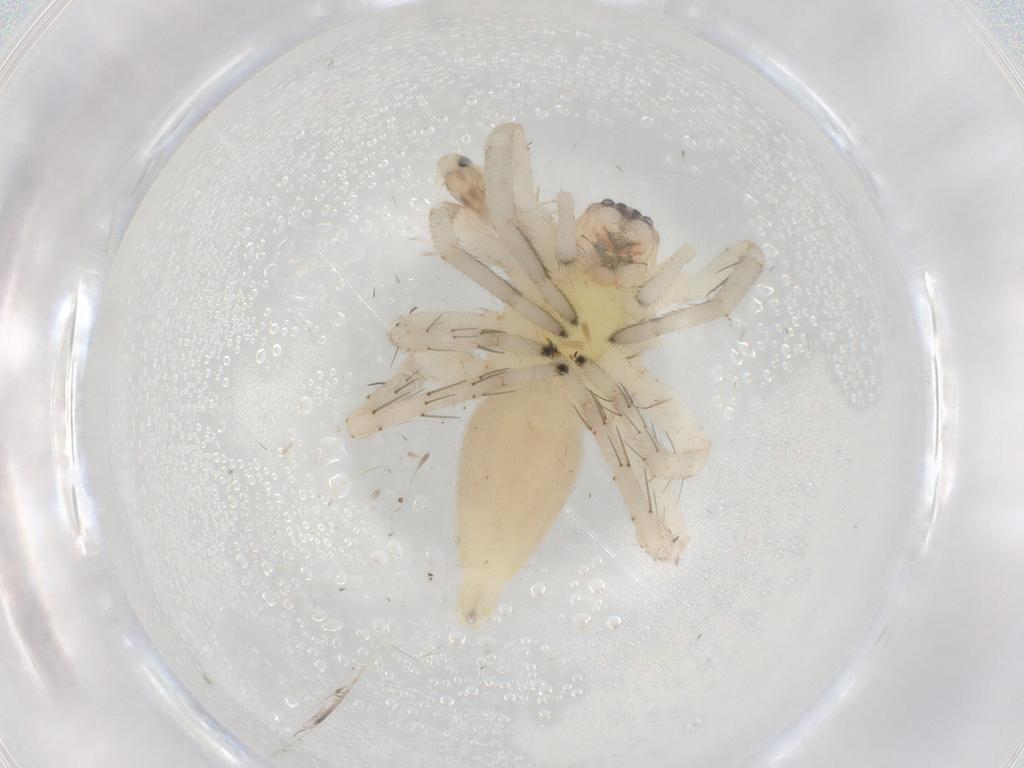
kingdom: Animalia
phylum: Arthropoda
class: Arachnida
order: Araneae
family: Clubionidae
